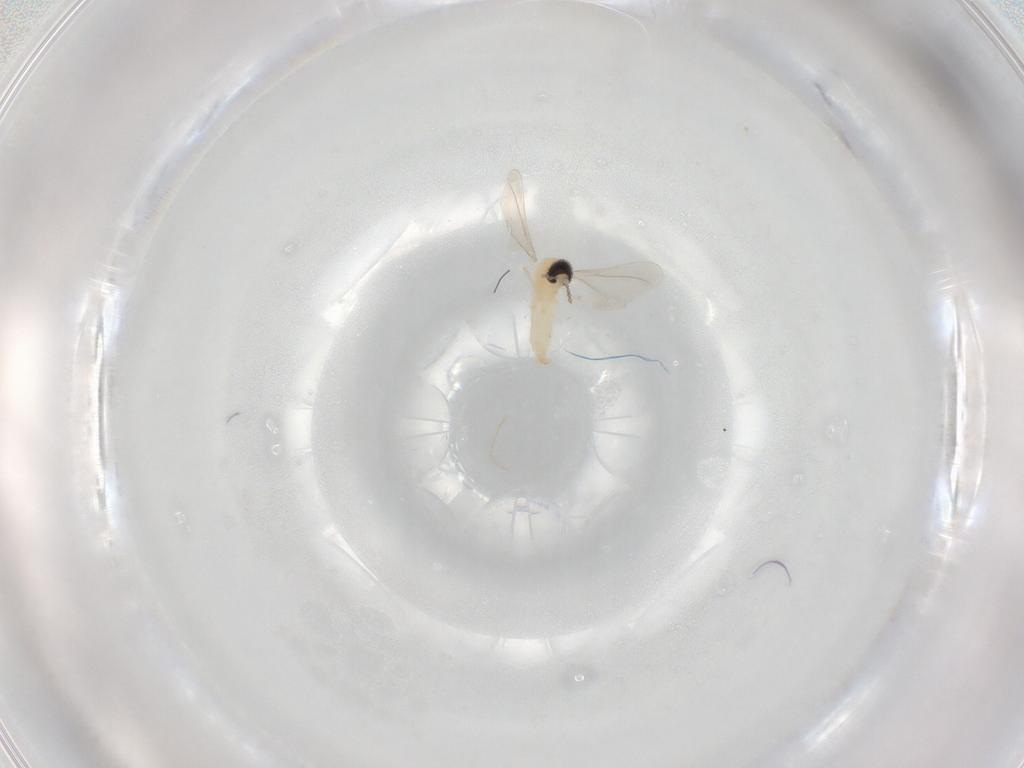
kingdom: Animalia
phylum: Arthropoda
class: Insecta
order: Diptera
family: Cecidomyiidae
